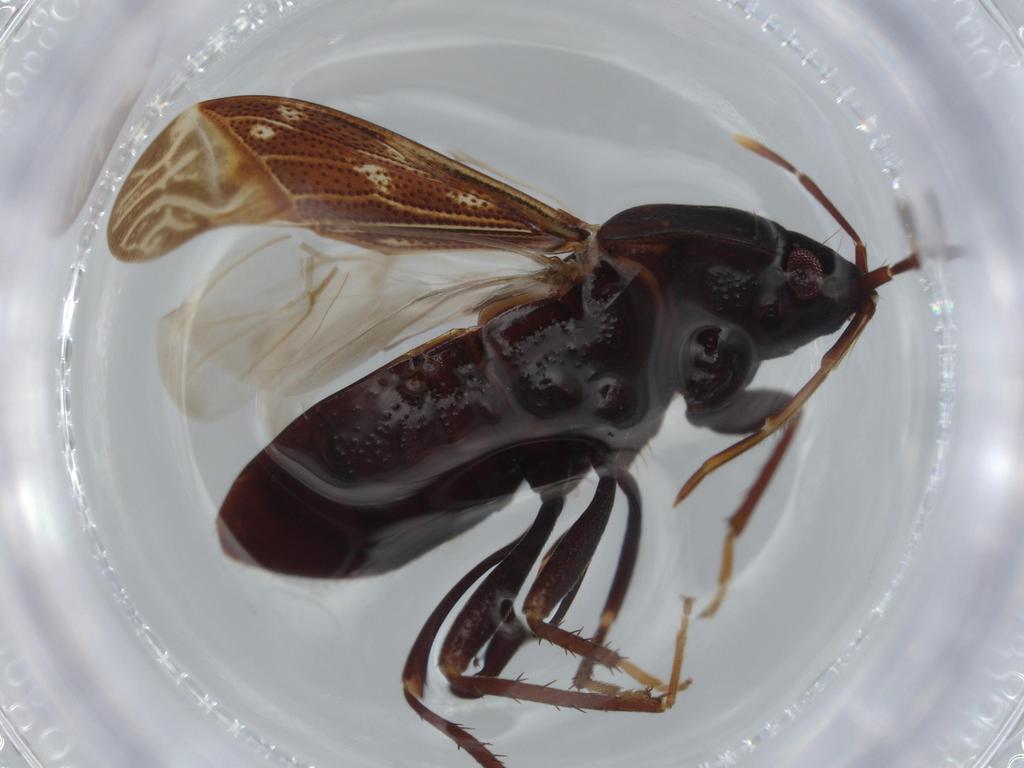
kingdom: Animalia
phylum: Arthropoda
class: Insecta
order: Hemiptera
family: Rhyparochromidae
